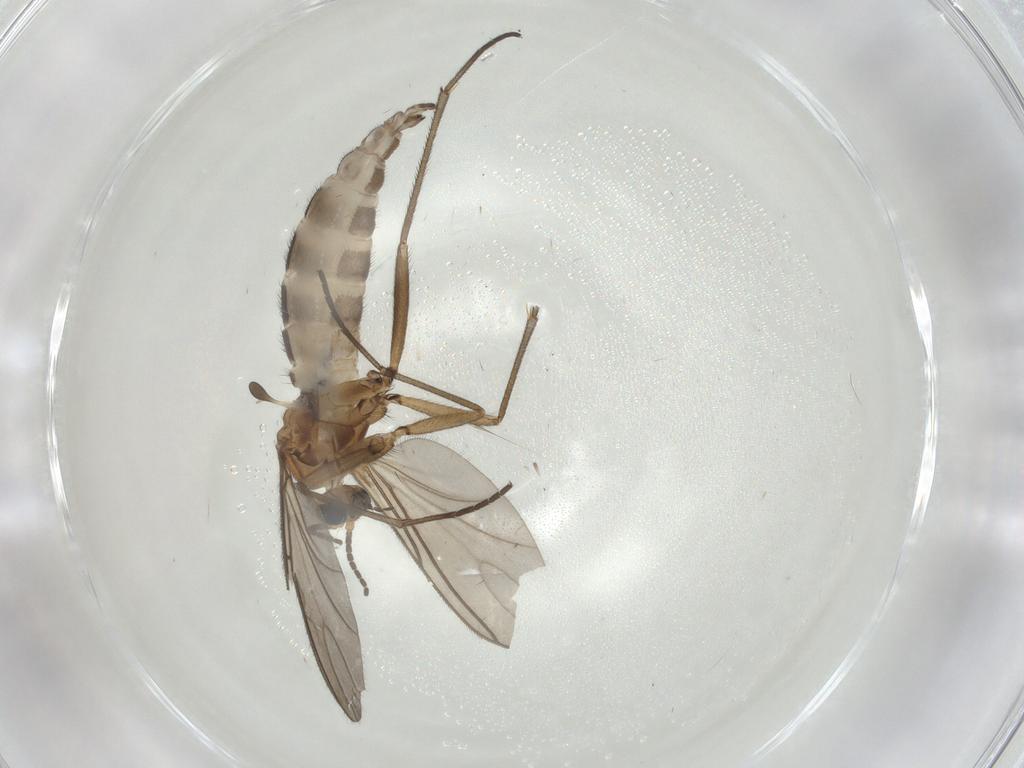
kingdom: Animalia
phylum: Arthropoda
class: Insecta
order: Diptera
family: Sciaridae
